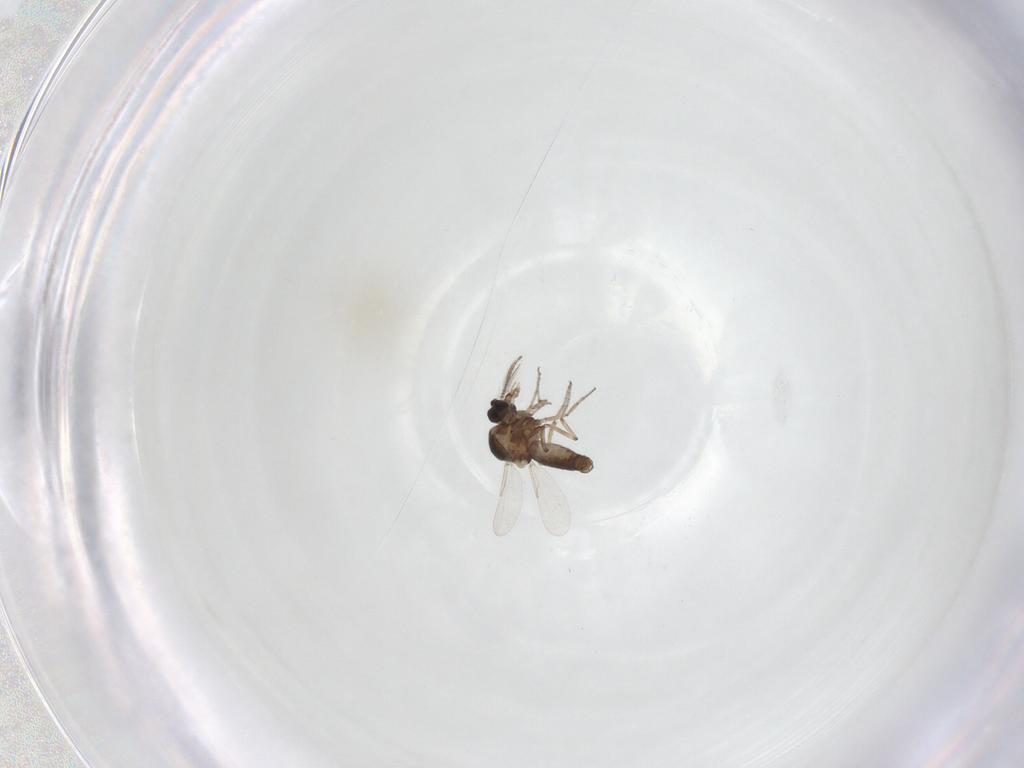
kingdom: Animalia
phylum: Arthropoda
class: Insecta
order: Diptera
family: Ceratopogonidae
